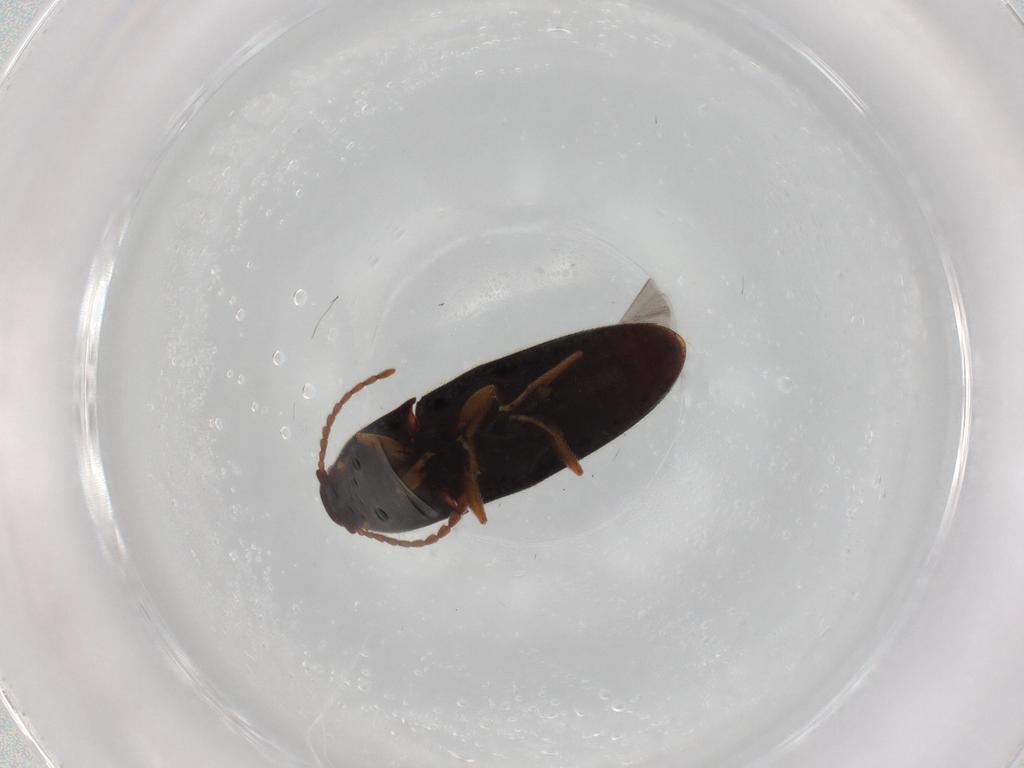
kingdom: Animalia
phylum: Arthropoda
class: Insecta
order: Coleoptera
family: Elateridae
